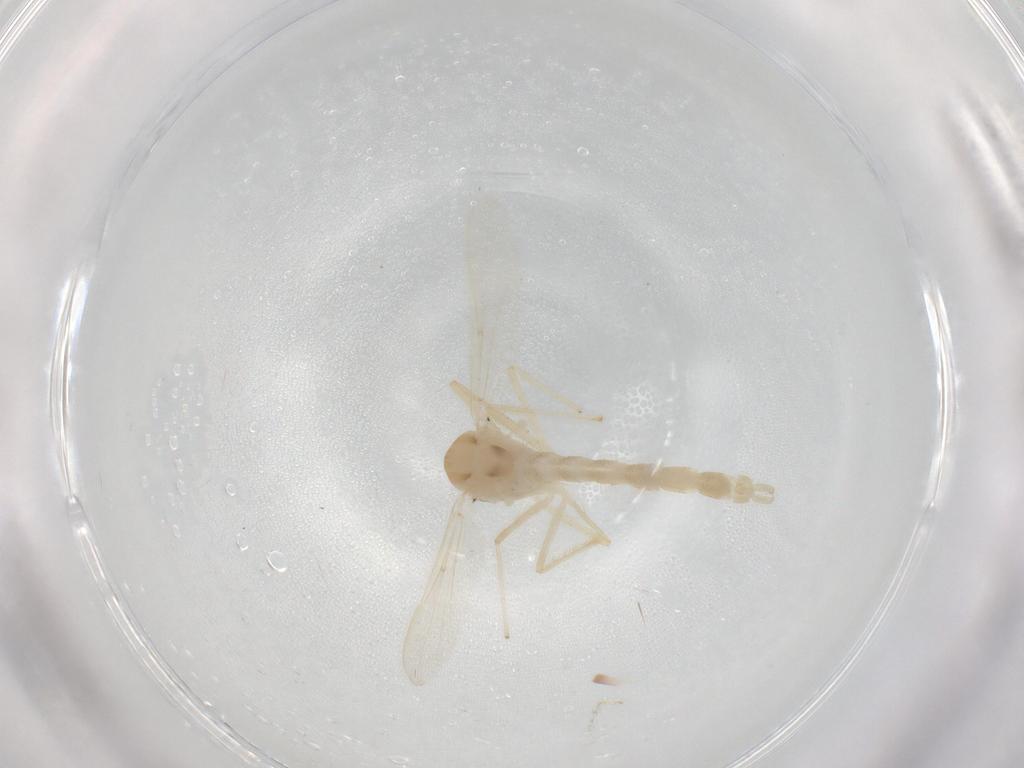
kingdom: Animalia
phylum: Arthropoda
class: Insecta
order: Diptera
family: Chironomidae
